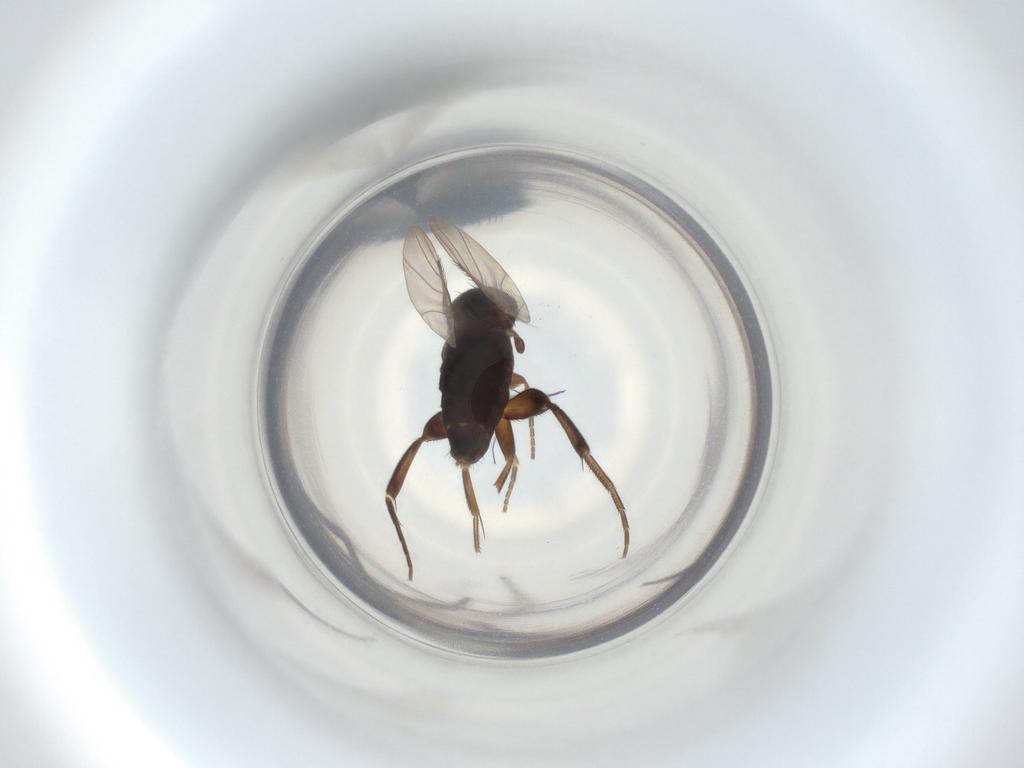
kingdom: Animalia
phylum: Arthropoda
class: Insecta
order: Diptera
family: Phoridae
